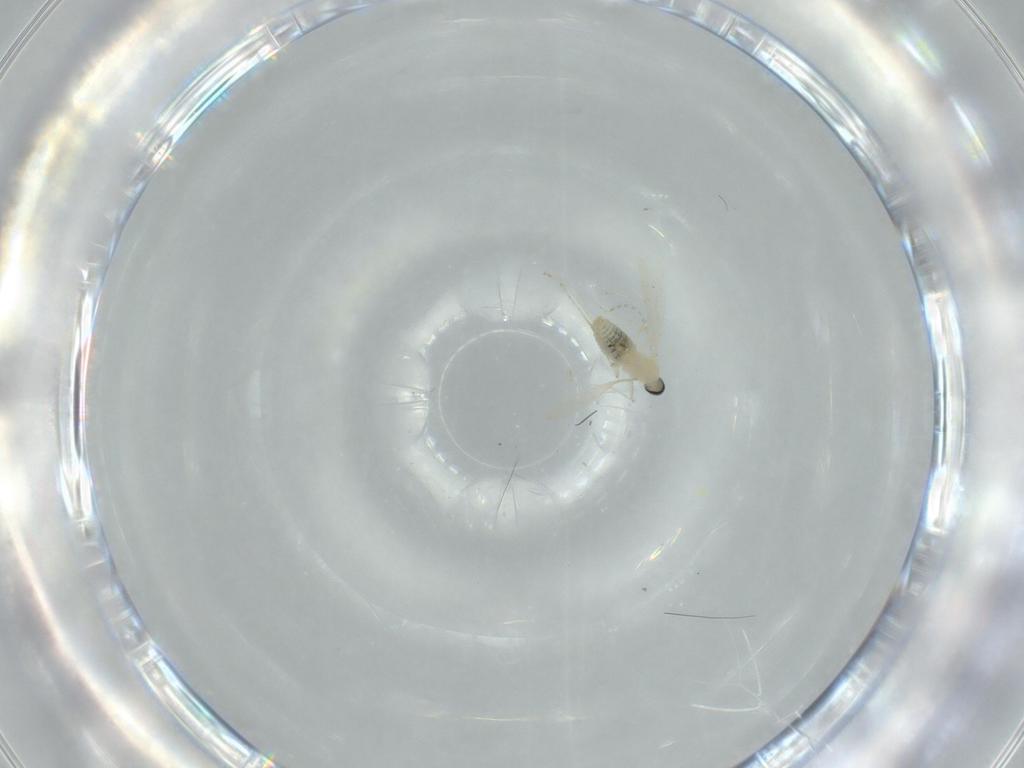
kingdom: Animalia
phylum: Arthropoda
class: Insecta
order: Diptera
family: Cecidomyiidae
